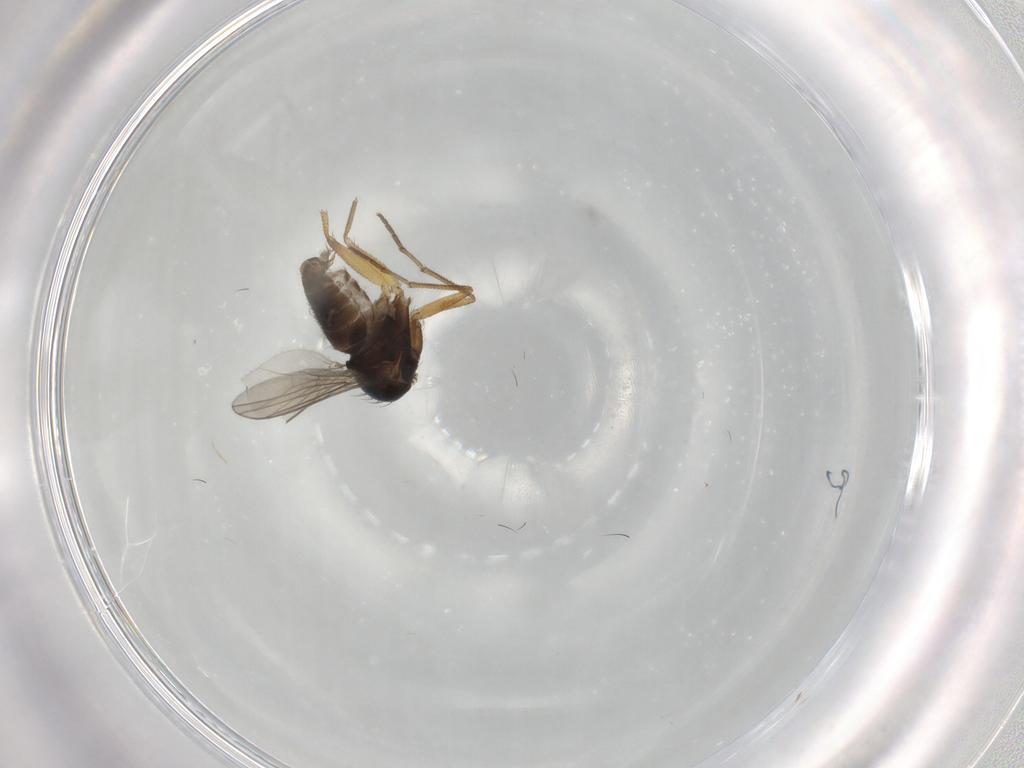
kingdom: Animalia
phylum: Arthropoda
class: Insecta
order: Diptera
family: Dolichopodidae
